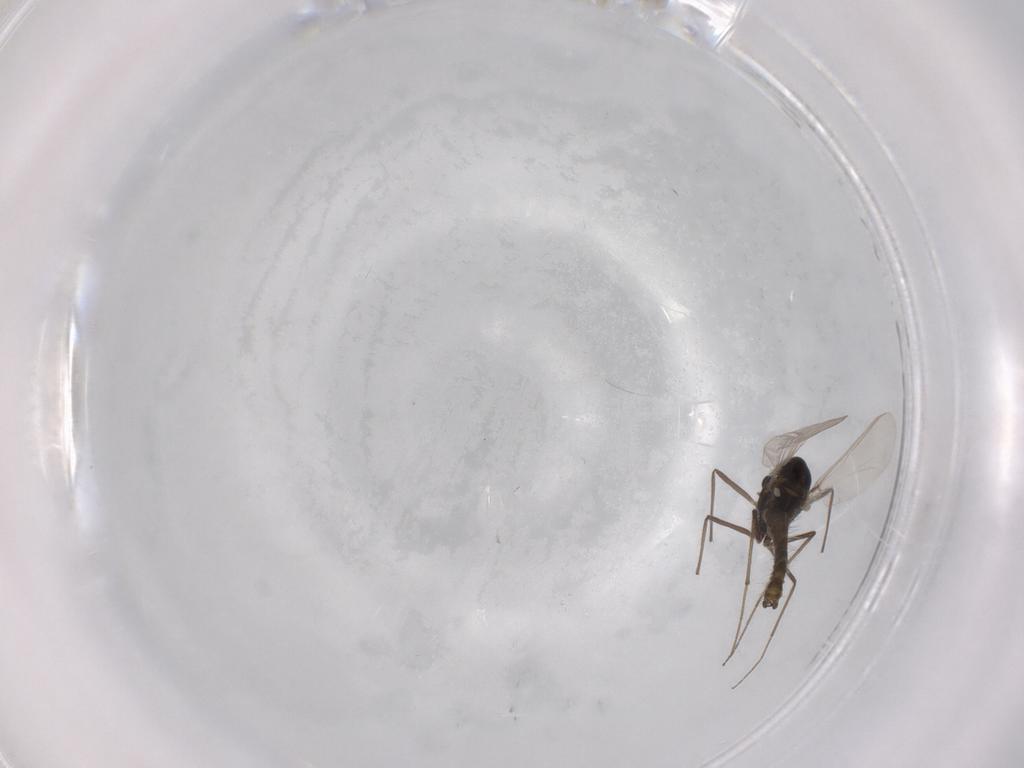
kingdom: Animalia
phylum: Arthropoda
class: Insecta
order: Diptera
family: Chironomidae
